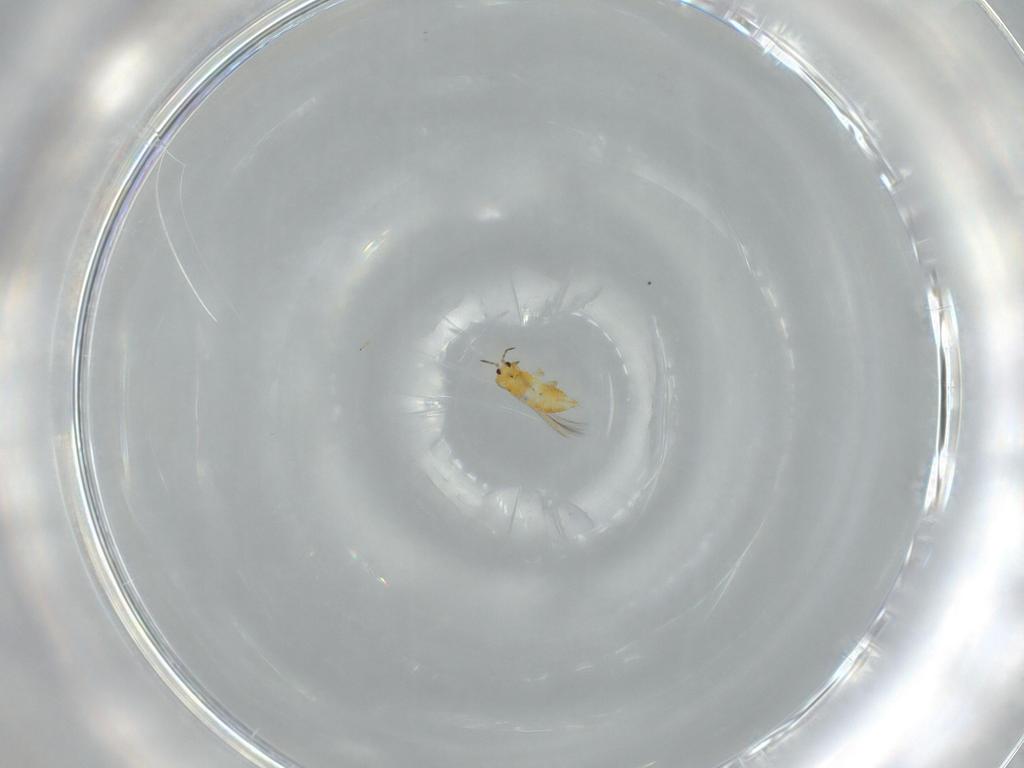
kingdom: Animalia
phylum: Arthropoda
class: Insecta
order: Thysanoptera
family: Thripidae
